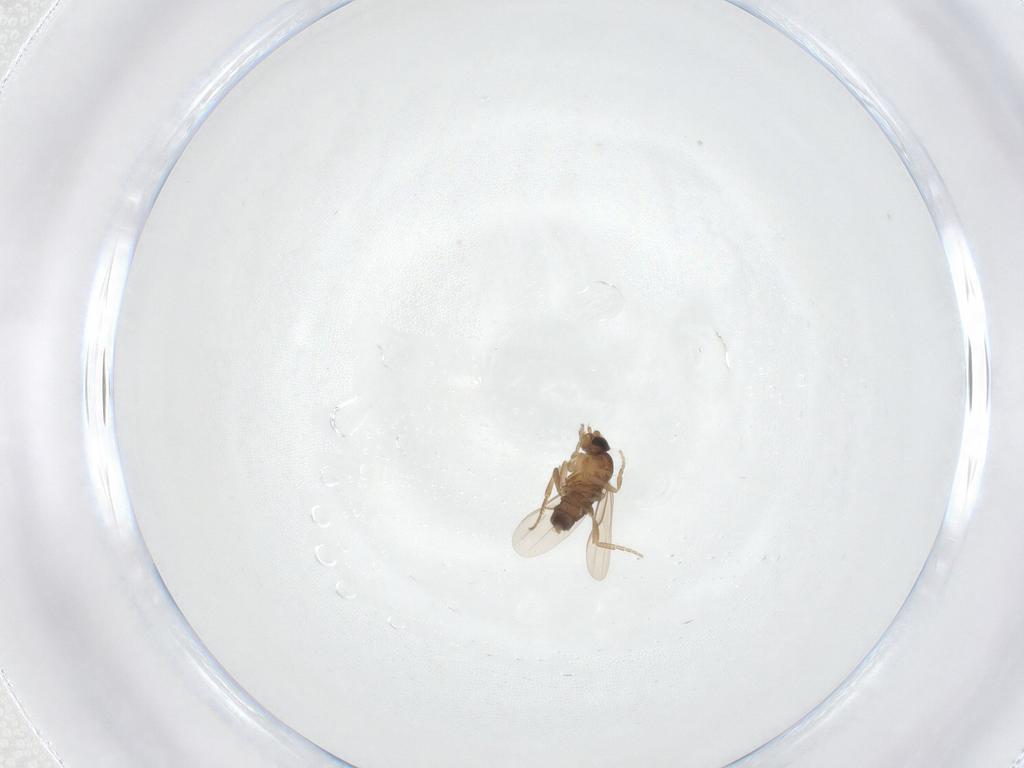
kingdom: Animalia
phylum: Arthropoda
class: Insecta
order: Diptera
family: Phoridae
